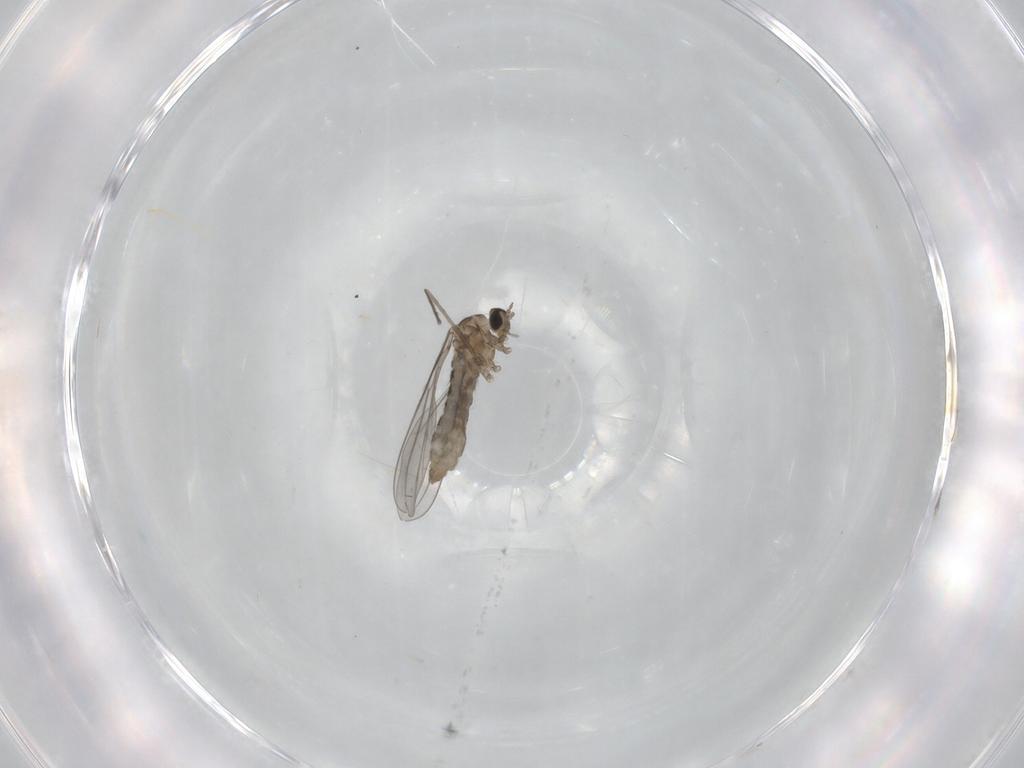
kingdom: Animalia
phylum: Arthropoda
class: Insecta
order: Diptera
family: Cecidomyiidae
